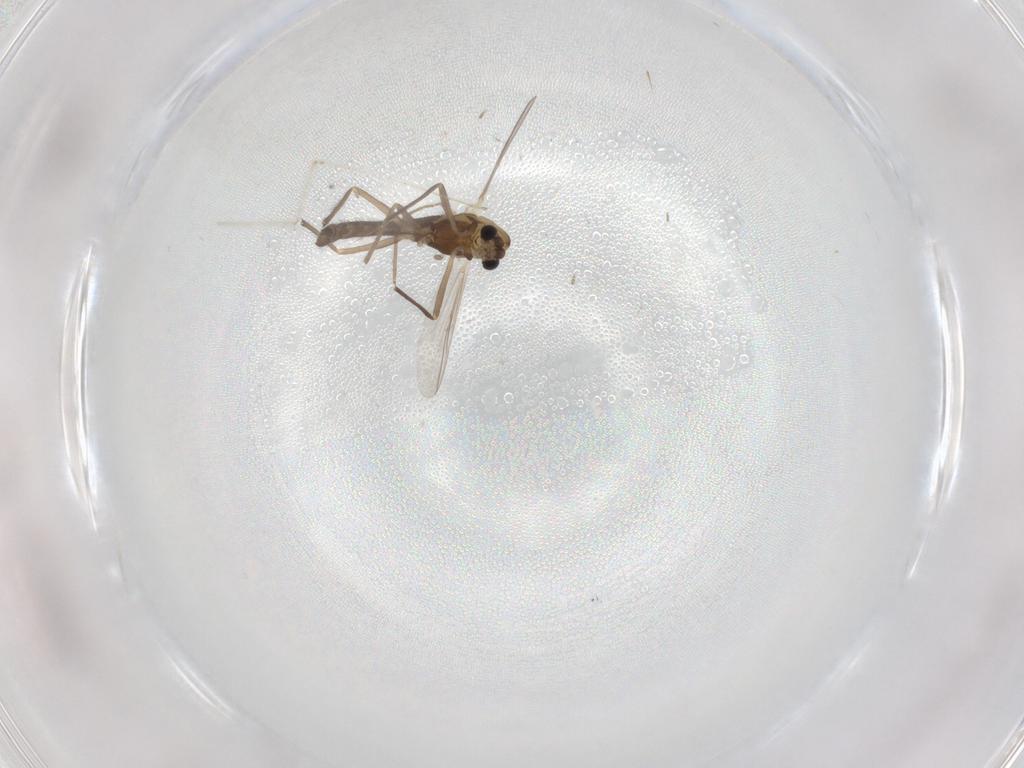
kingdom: Animalia
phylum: Arthropoda
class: Insecta
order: Diptera
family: Chironomidae
